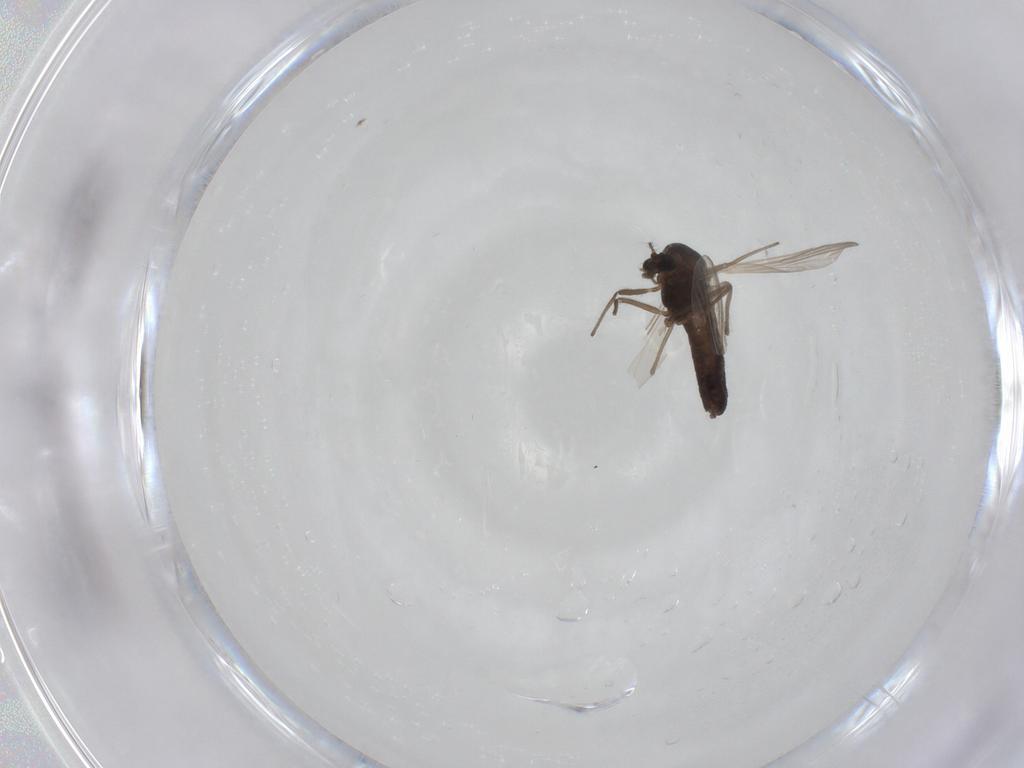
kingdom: Animalia
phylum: Arthropoda
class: Insecta
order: Diptera
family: Chironomidae
